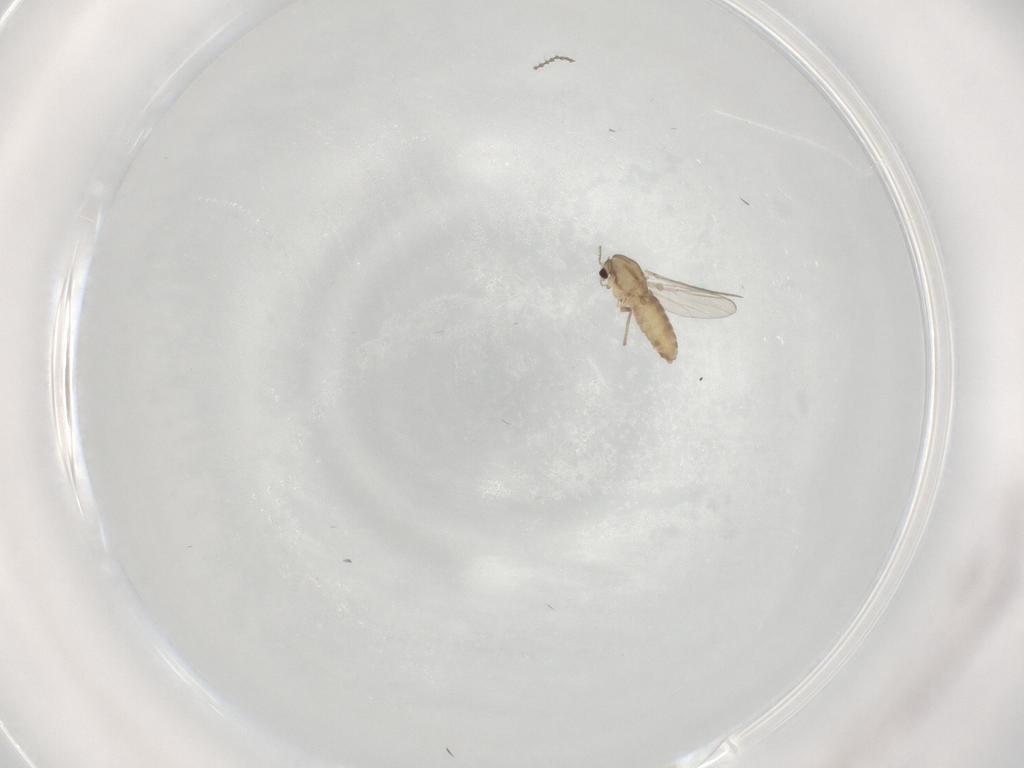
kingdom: Animalia
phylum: Arthropoda
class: Insecta
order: Diptera
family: Cecidomyiidae
